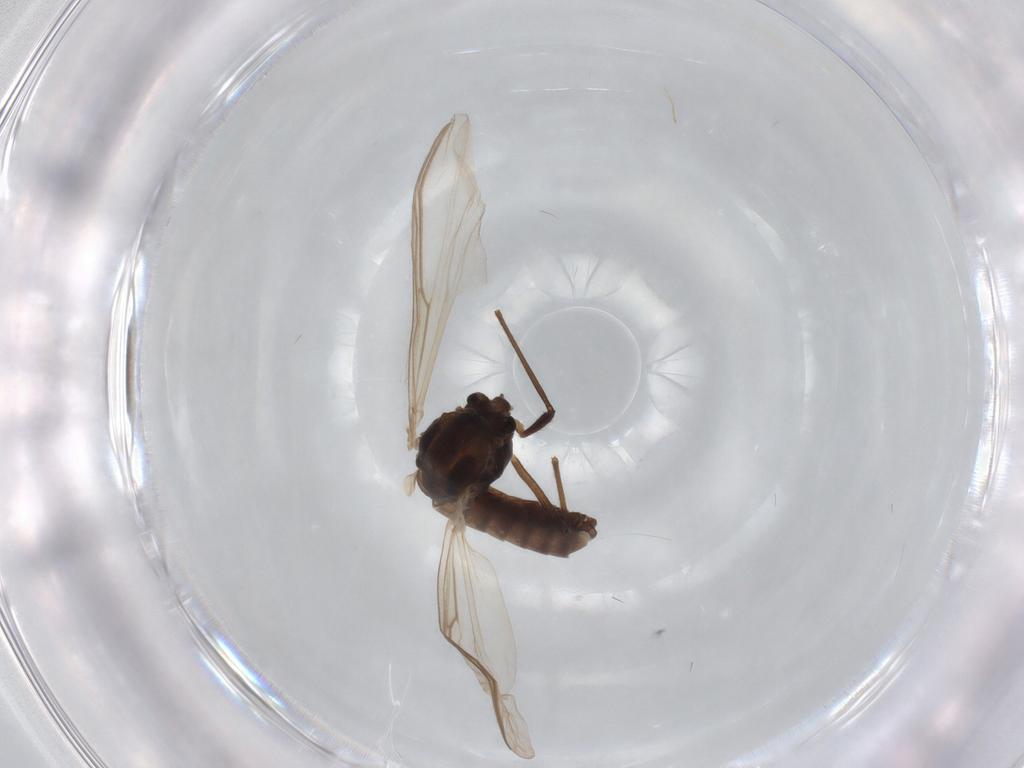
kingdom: Animalia
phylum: Arthropoda
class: Insecta
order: Diptera
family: Chironomidae
